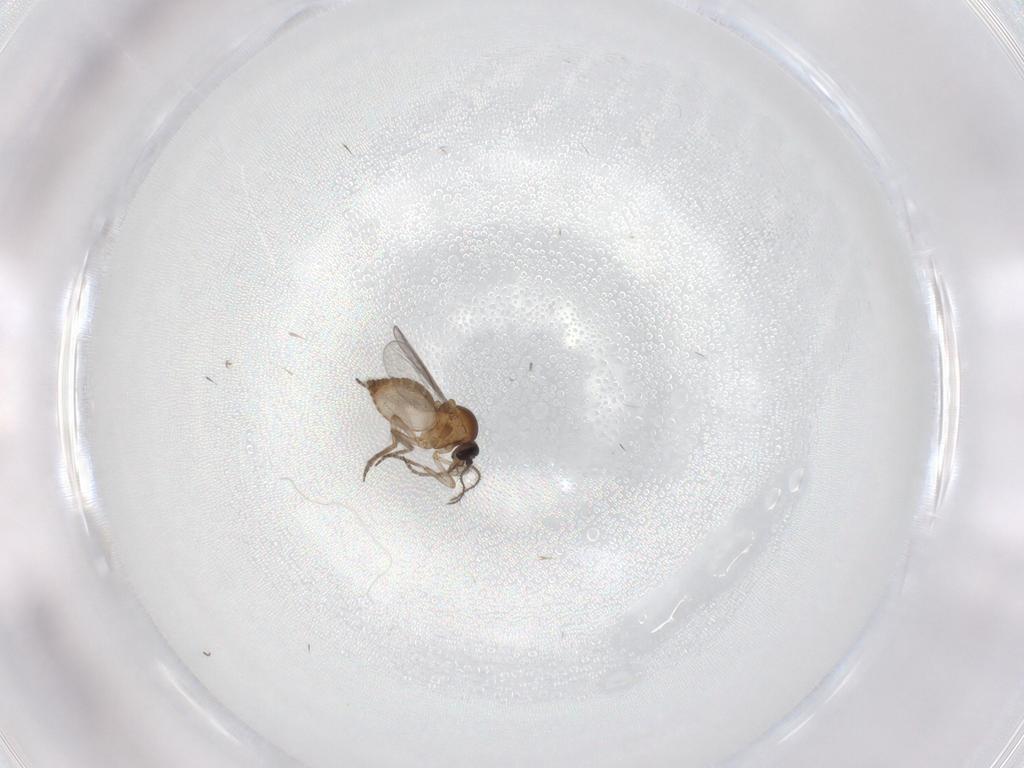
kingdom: Animalia
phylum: Arthropoda
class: Insecta
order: Diptera
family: Chironomidae
